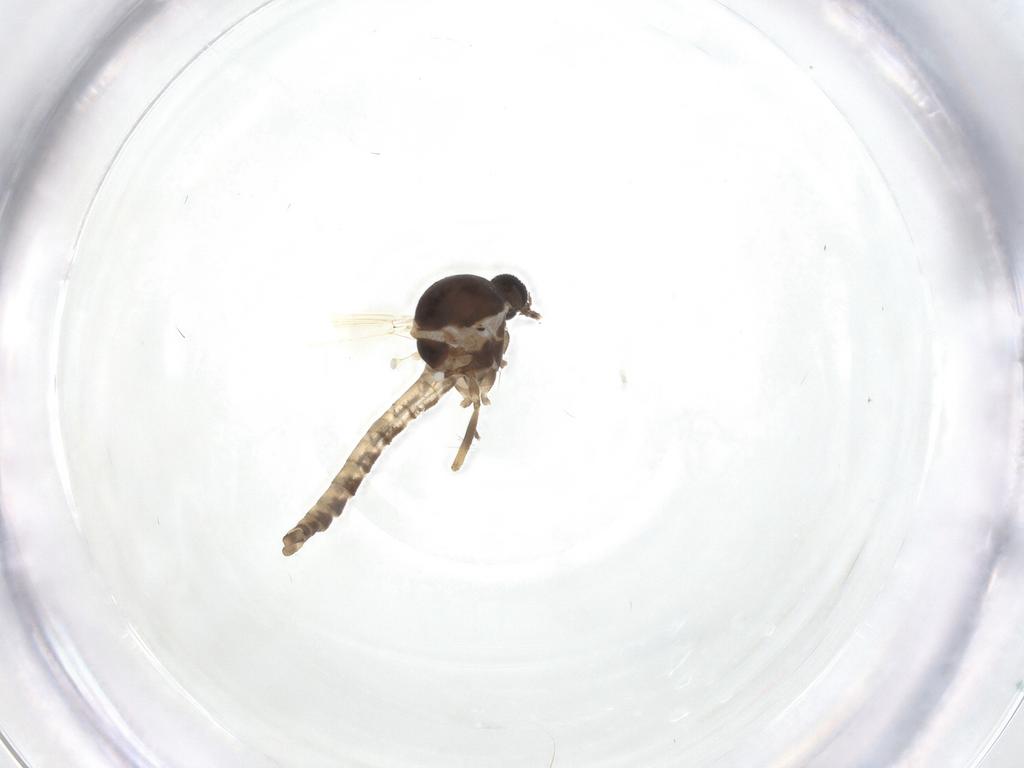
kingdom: Animalia
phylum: Arthropoda
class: Insecta
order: Diptera
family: Ceratopogonidae
